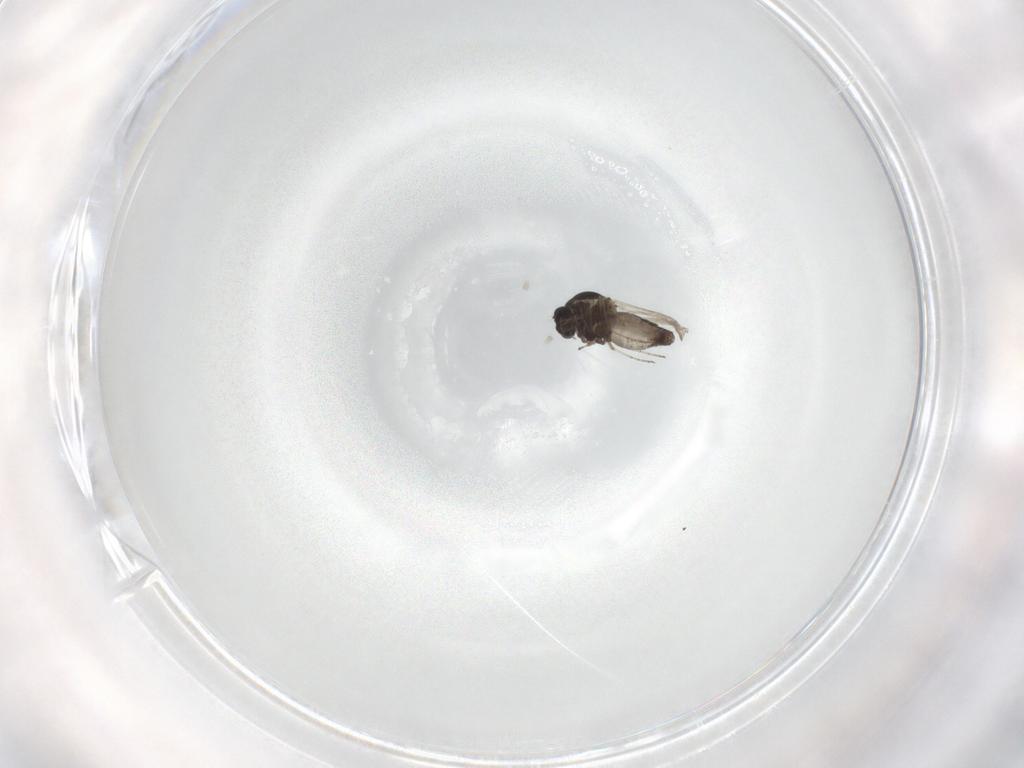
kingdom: Animalia
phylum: Arthropoda
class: Insecta
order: Diptera
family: Ceratopogonidae
